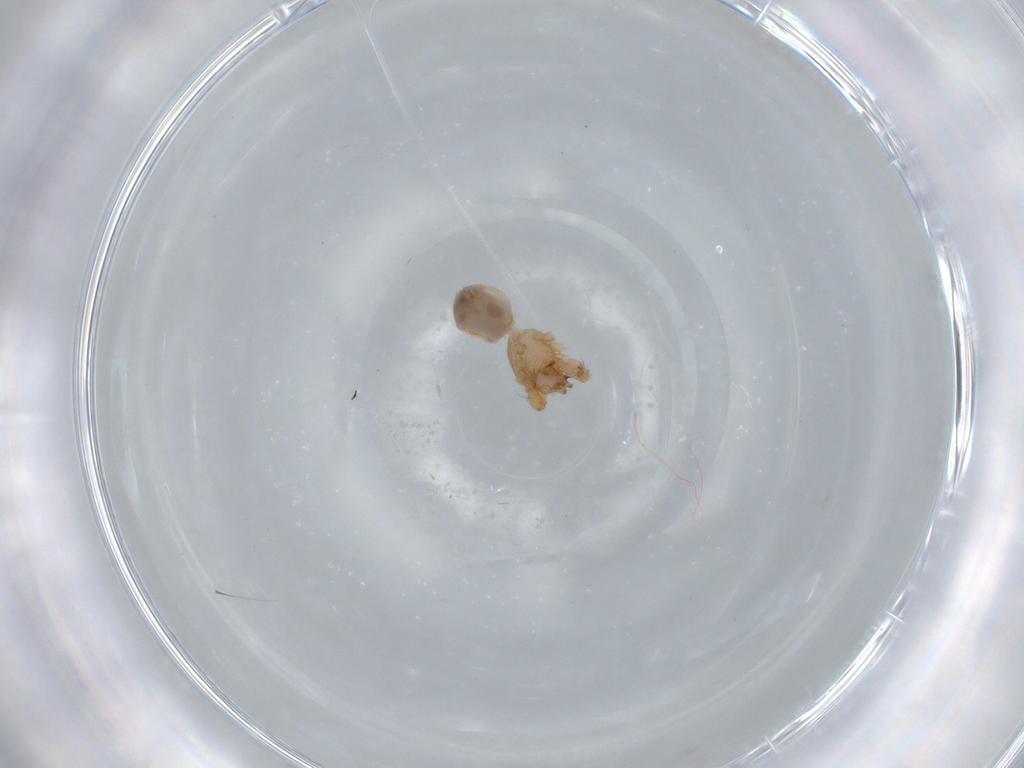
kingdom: Animalia
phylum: Arthropoda
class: Arachnida
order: Araneae
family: Oonopidae
